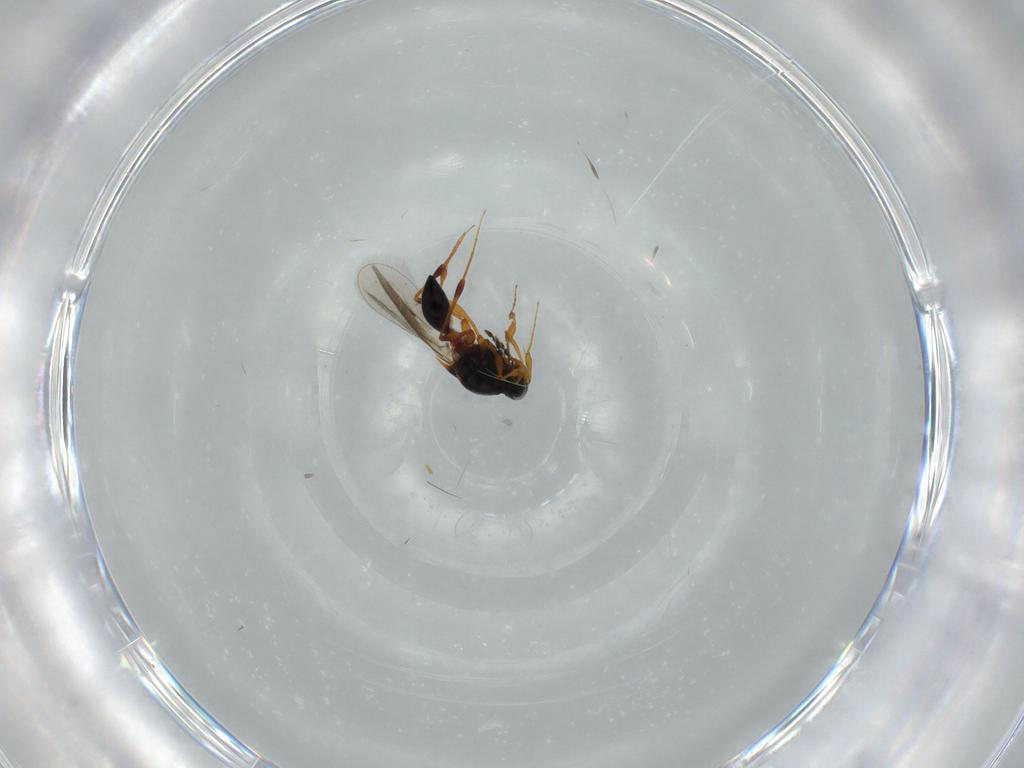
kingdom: Animalia
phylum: Arthropoda
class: Insecta
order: Hymenoptera
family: Platygastridae
